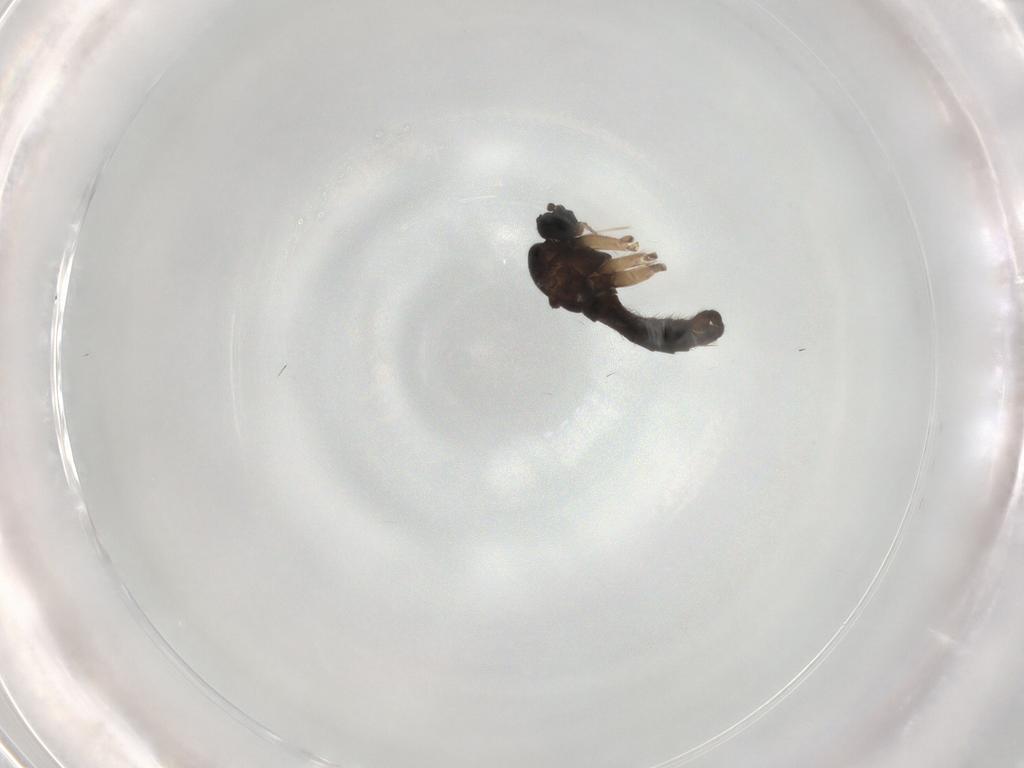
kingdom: Animalia
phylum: Arthropoda
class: Insecta
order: Diptera
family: Sciaridae
